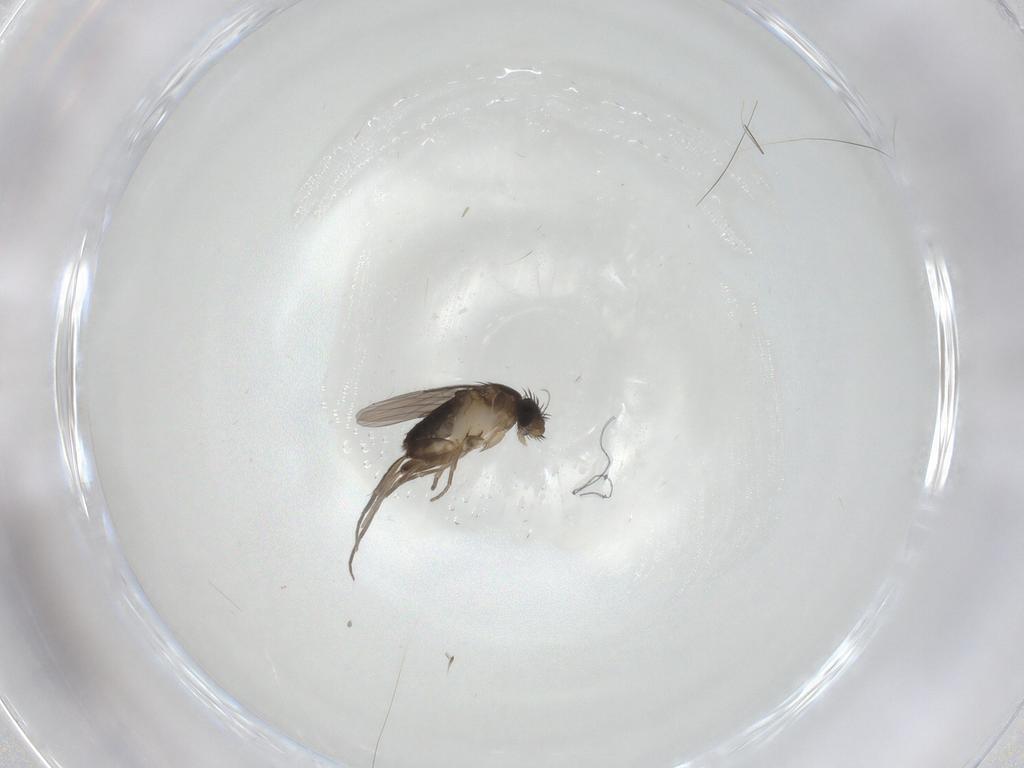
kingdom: Animalia
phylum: Arthropoda
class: Insecta
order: Diptera
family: Phoridae
